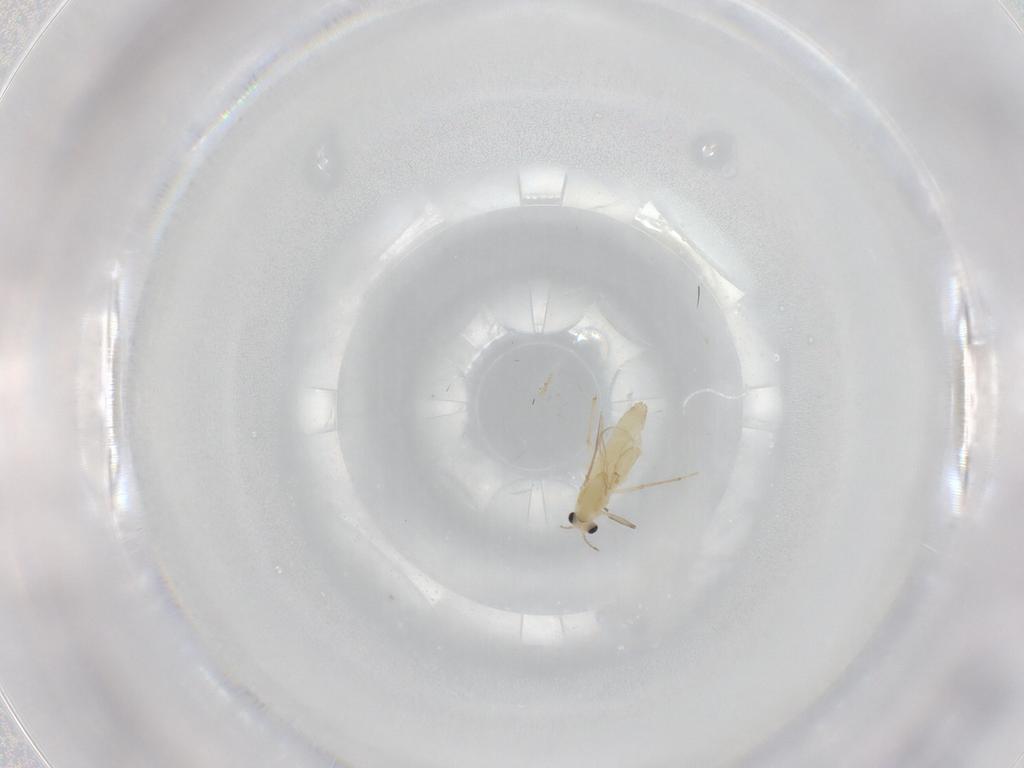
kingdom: Animalia
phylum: Arthropoda
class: Insecta
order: Diptera
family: Chironomidae
